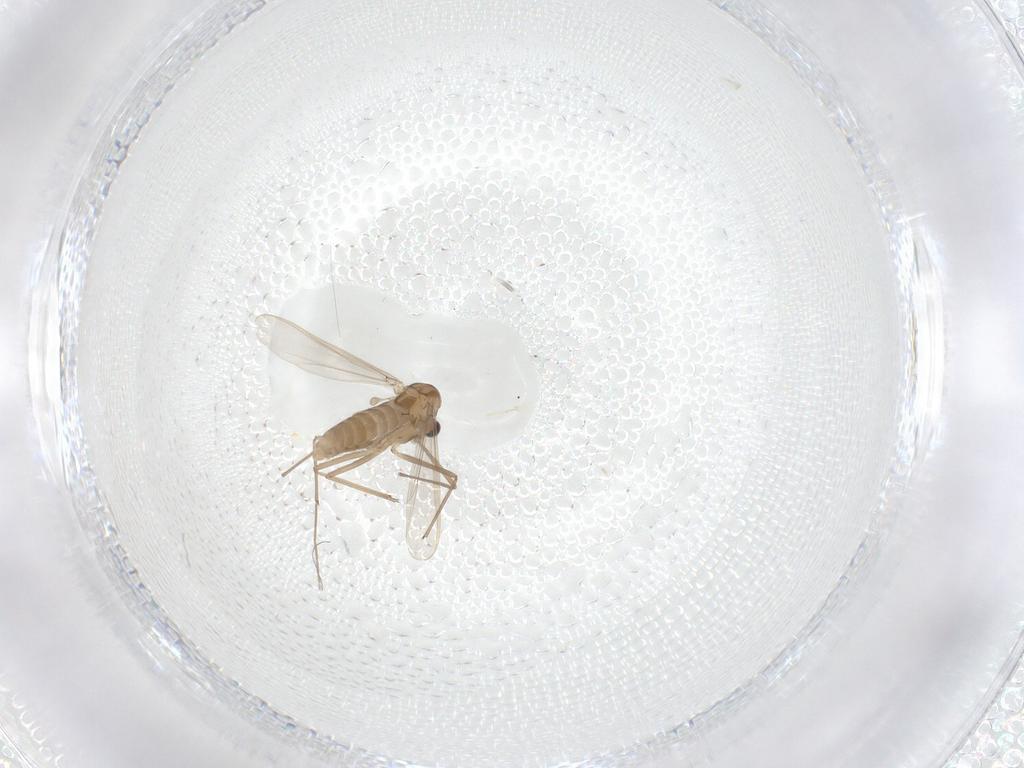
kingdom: Animalia
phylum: Arthropoda
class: Insecta
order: Diptera
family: Chironomidae
